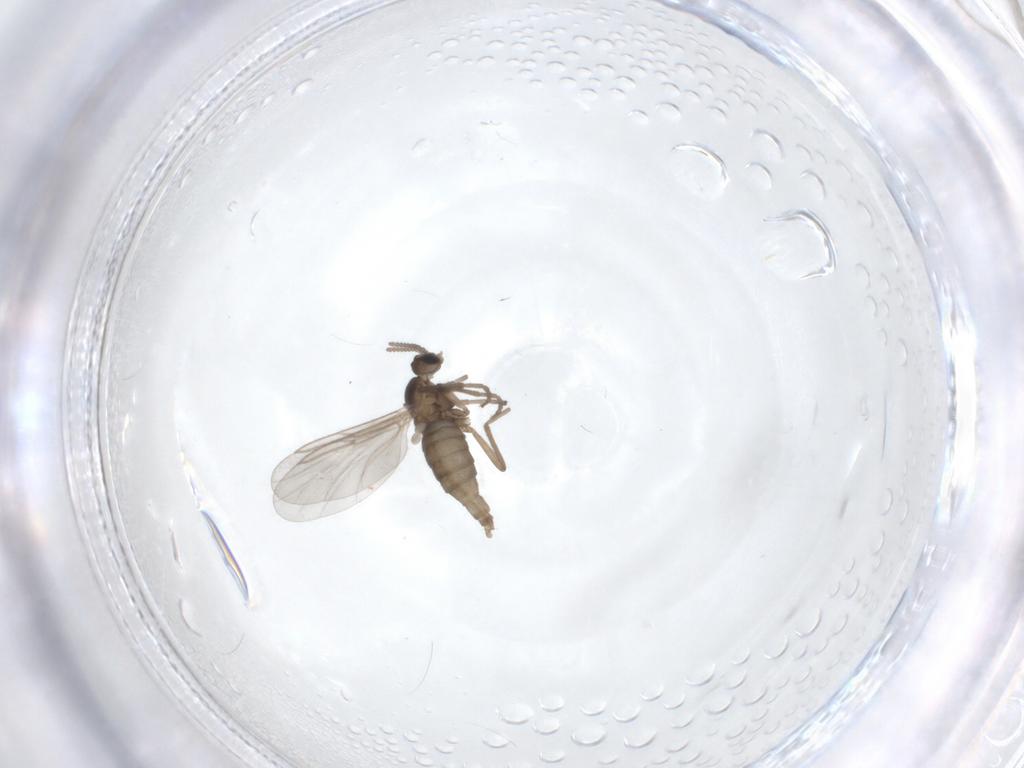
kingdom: Animalia
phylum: Arthropoda
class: Insecta
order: Diptera
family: Cecidomyiidae
